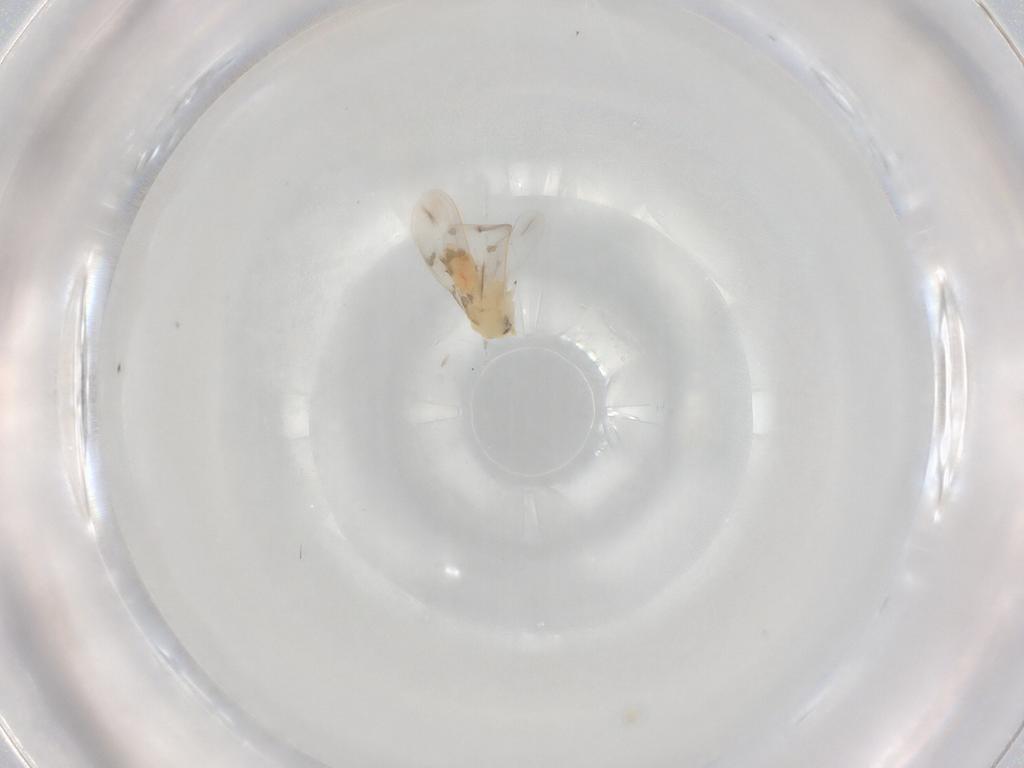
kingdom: Animalia
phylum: Arthropoda
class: Insecta
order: Hemiptera
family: Aleyrodidae
